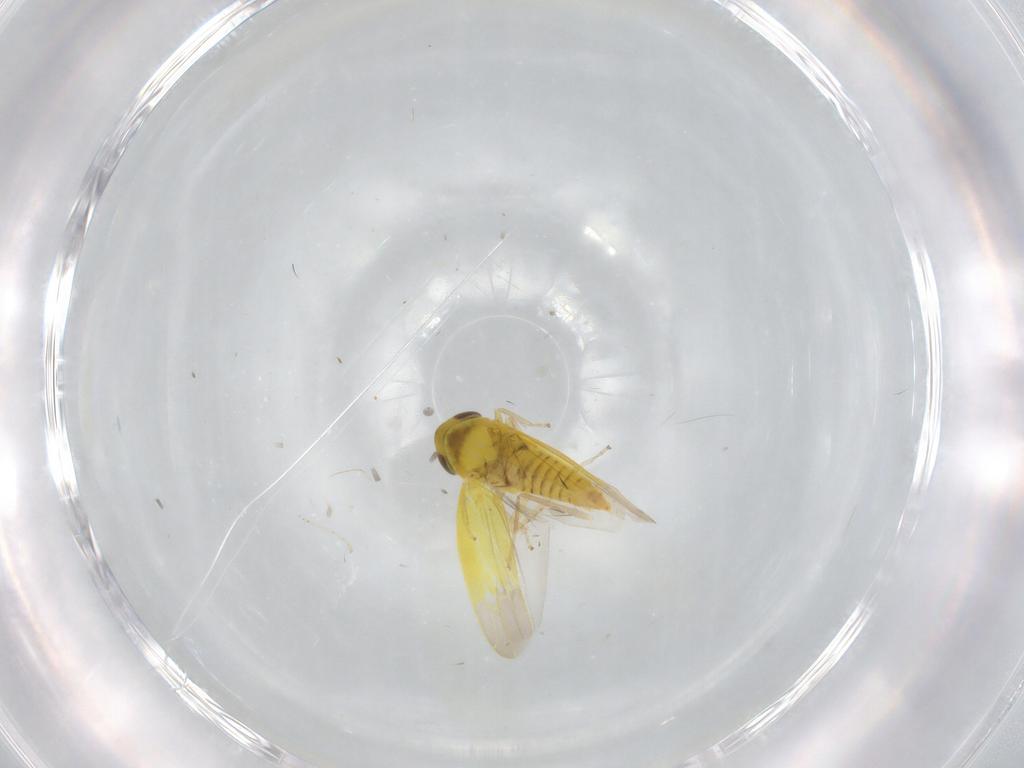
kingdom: Animalia
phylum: Arthropoda
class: Insecta
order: Hemiptera
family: Cicadellidae
